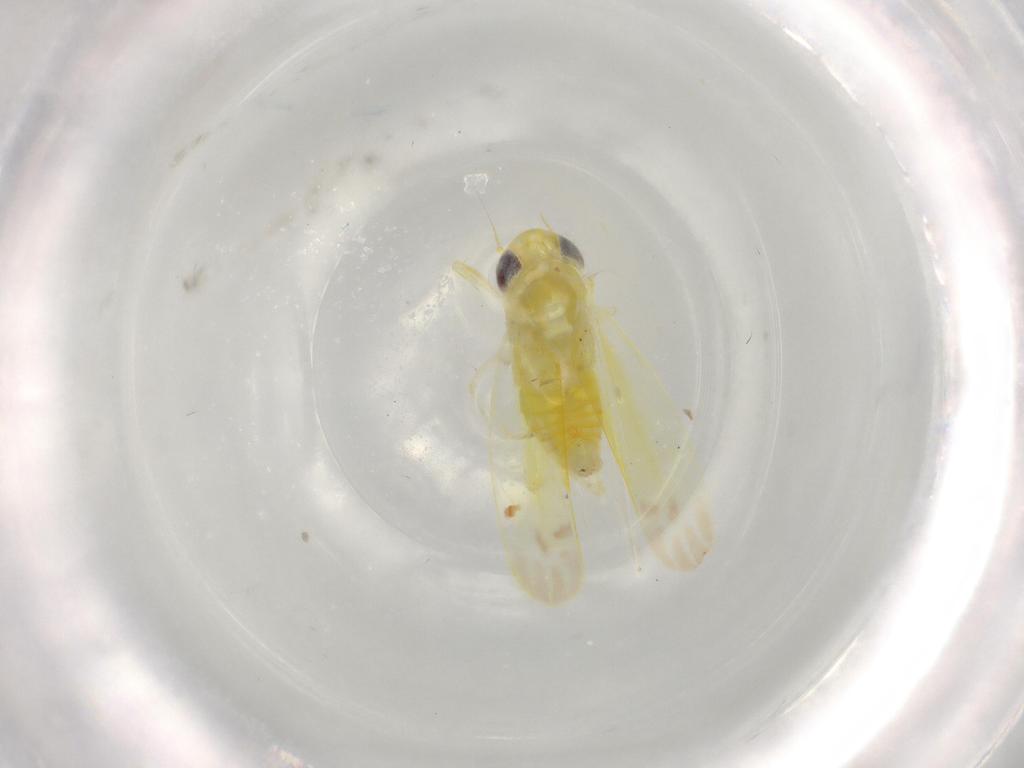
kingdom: Animalia
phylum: Arthropoda
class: Insecta
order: Hemiptera
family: Cicadellidae
